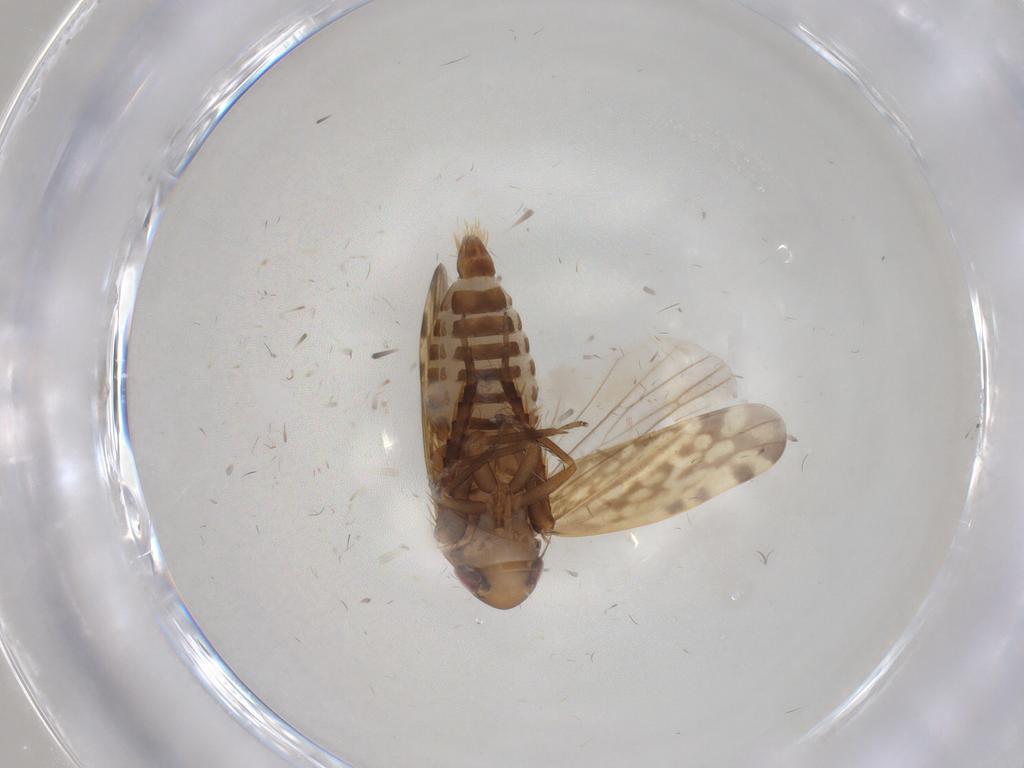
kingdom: Animalia
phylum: Arthropoda
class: Insecta
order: Hemiptera
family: Cicadellidae
